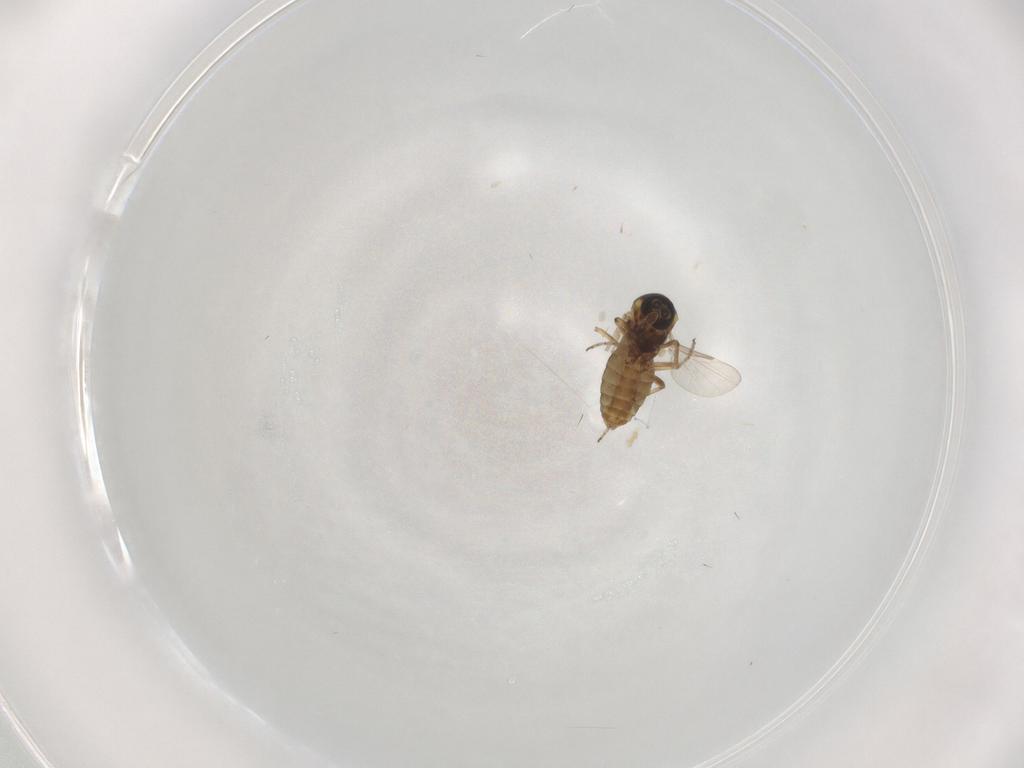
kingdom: Animalia
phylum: Arthropoda
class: Insecta
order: Diptera
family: Ceratopogonidae
